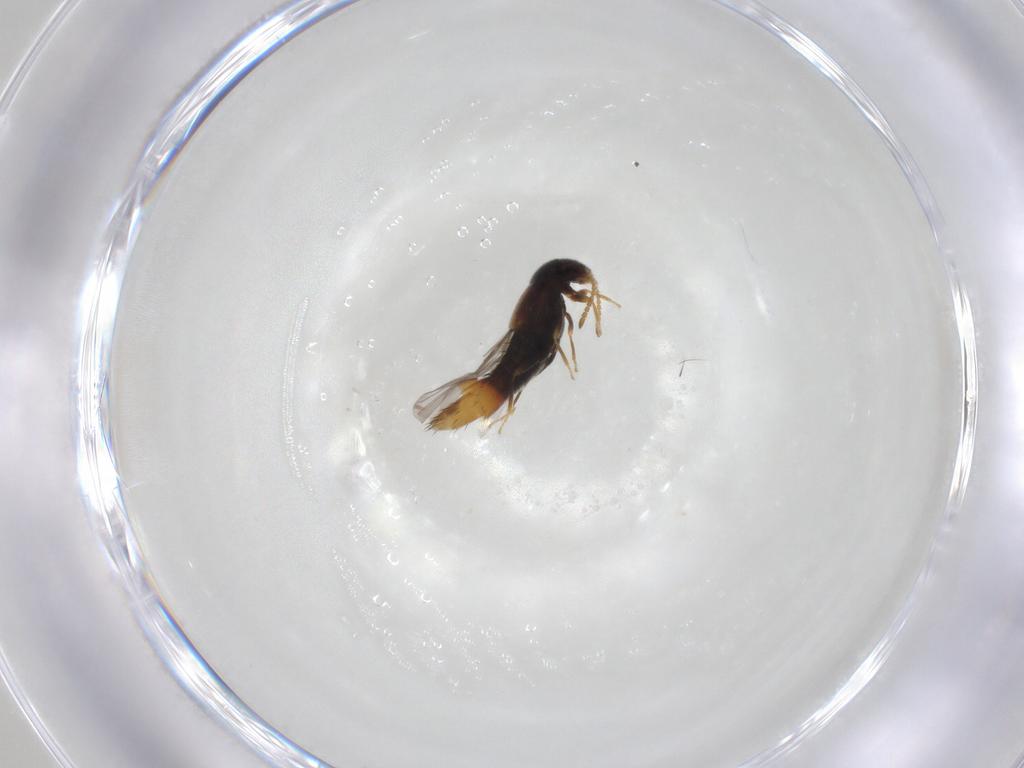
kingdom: Animalia
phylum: Arthropoda
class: Insecta
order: Coleoptera
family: Staphylinidae
